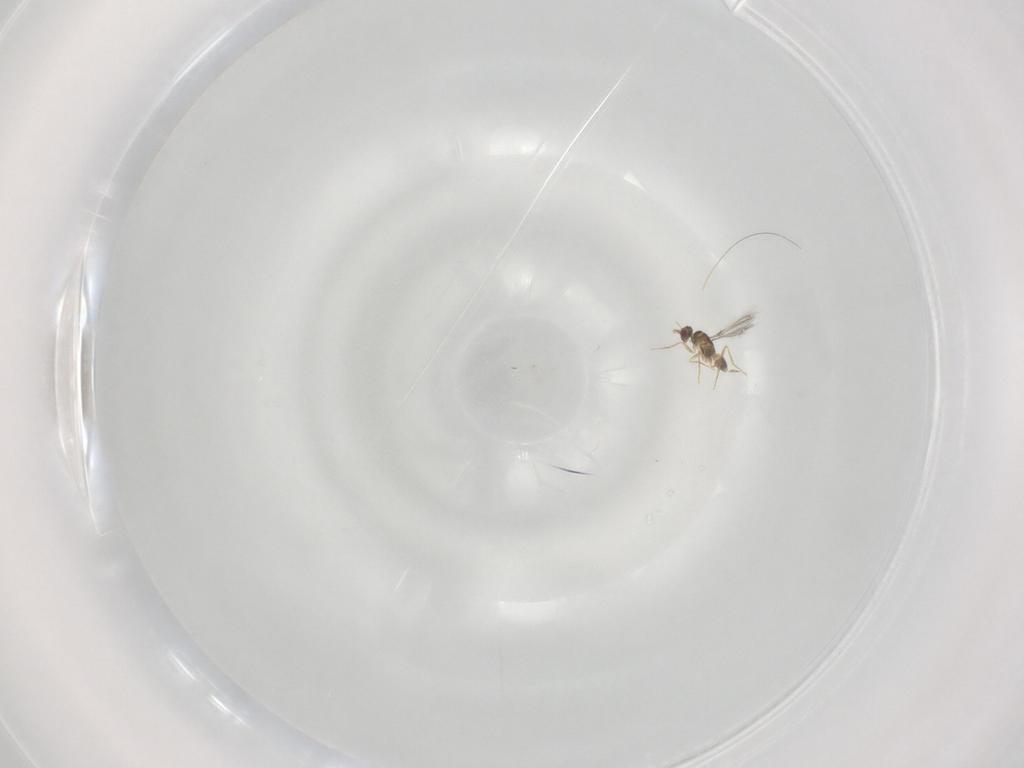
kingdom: Animalia
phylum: Arthropoda
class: Insecta
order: Hymenoptera
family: Mymaridae
